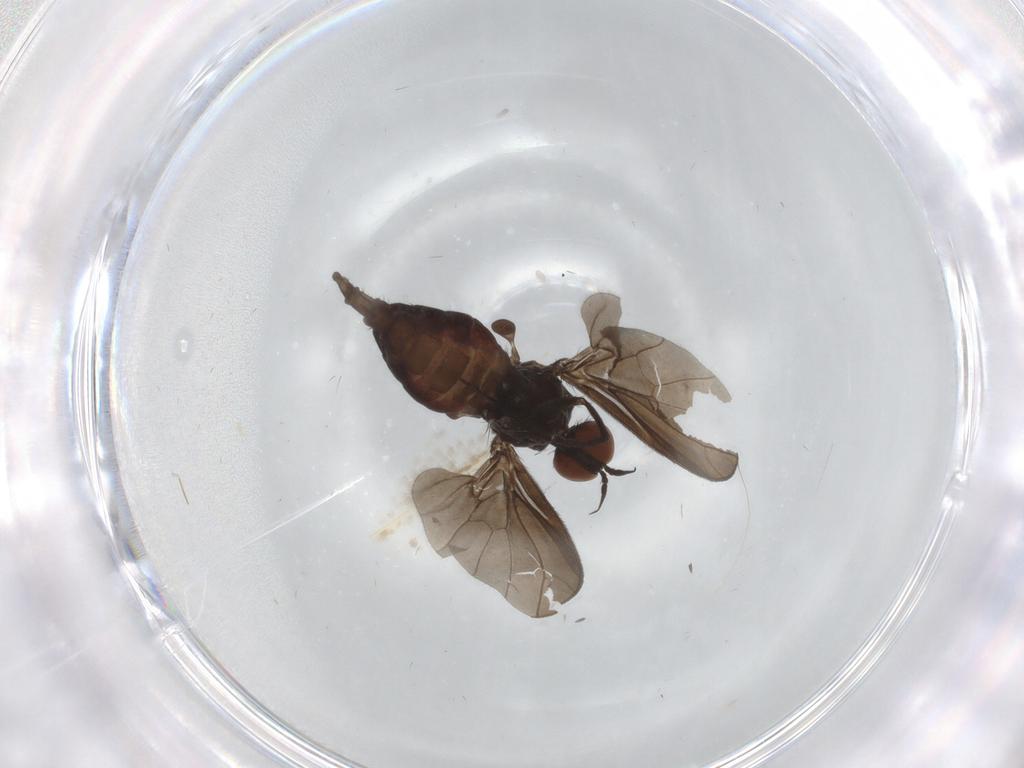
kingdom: Animalia
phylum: Arthropoda
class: Insecta
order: Diptera
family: Empididae
